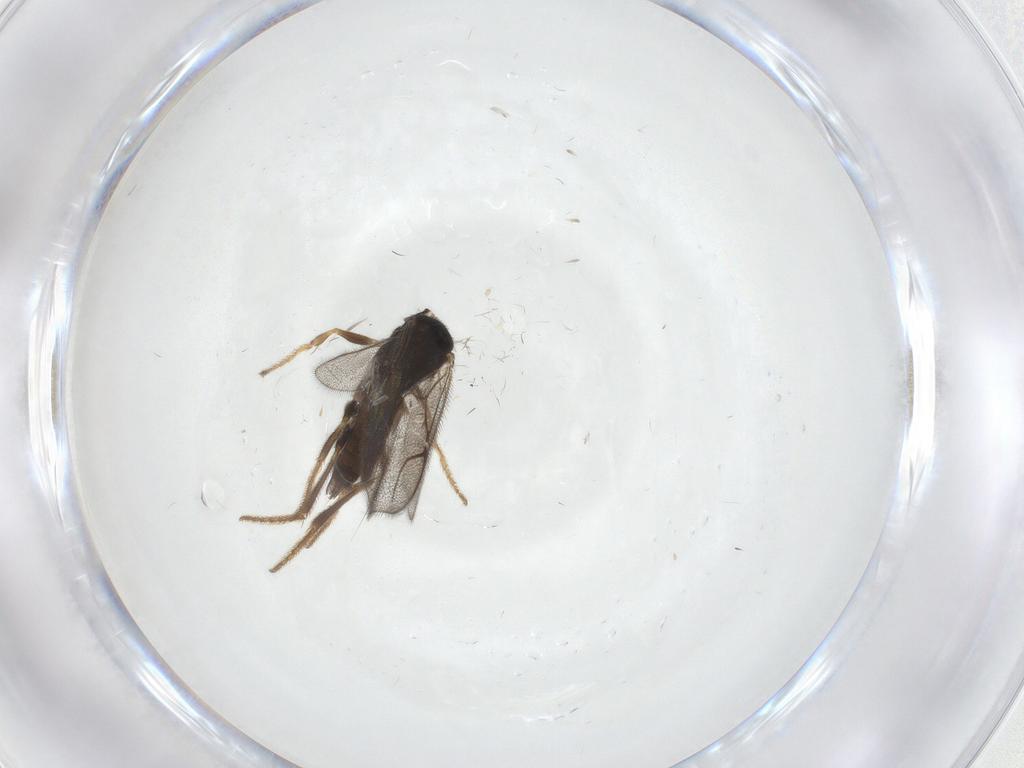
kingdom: Animalia
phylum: Arthropoda
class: Insecta
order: Hymenoptera
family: Dryinidae
